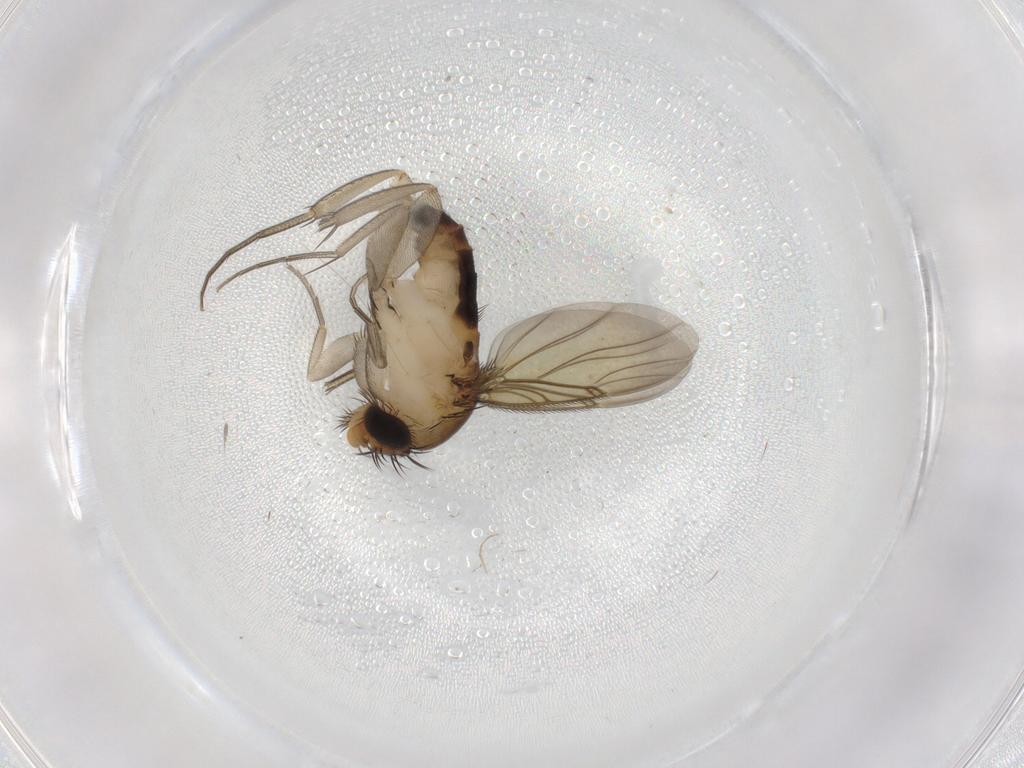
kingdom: Animalia
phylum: Arthropoda
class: Insecta
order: Diptera
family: Phoridae
